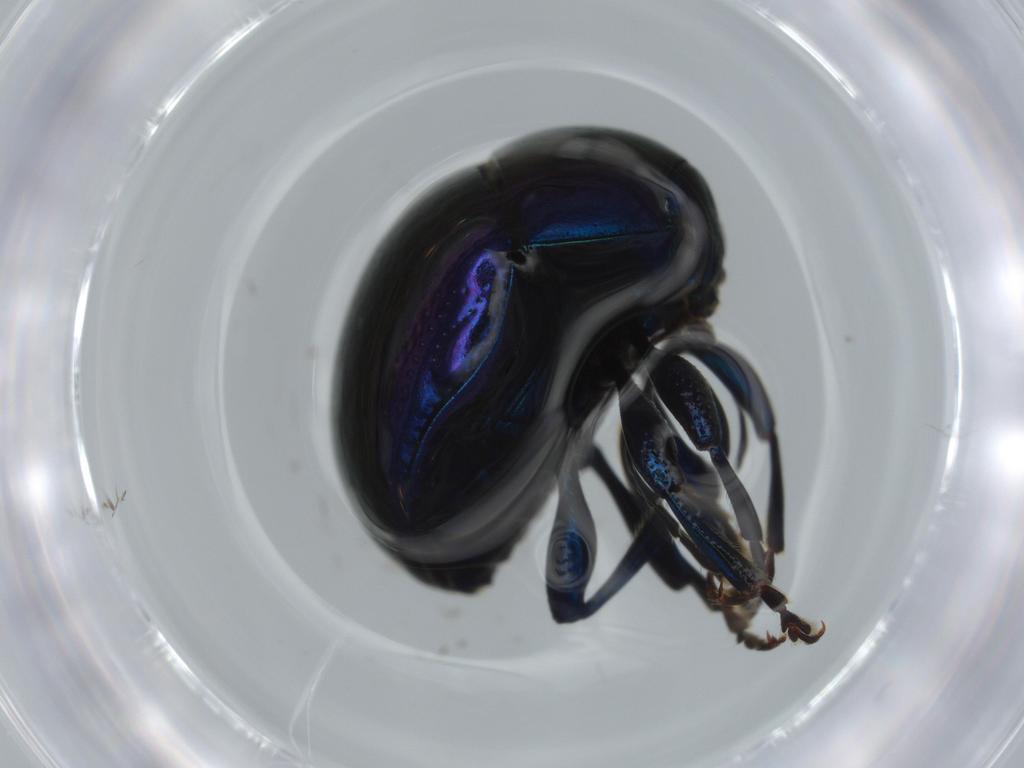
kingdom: Animalia
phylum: Arthropoda
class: Insecta
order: Coleoptera
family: Chrysomelidae
